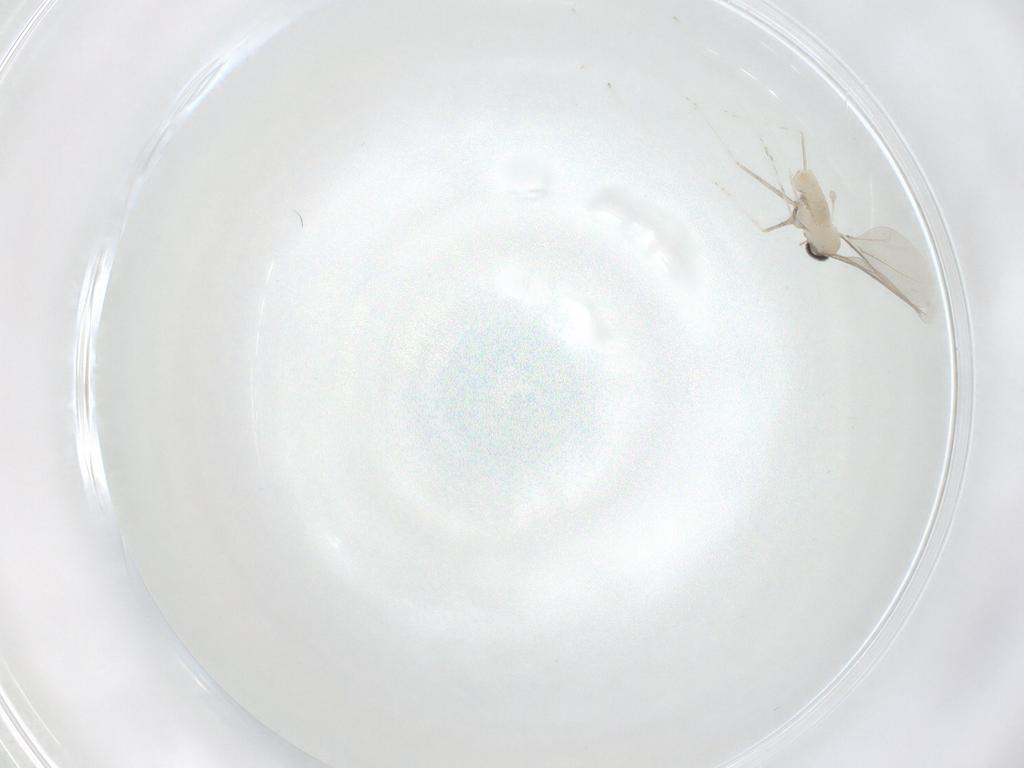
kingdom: Animalia
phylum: Arthropoda
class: Insecta
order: Diptera
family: Cecidomyiidae
